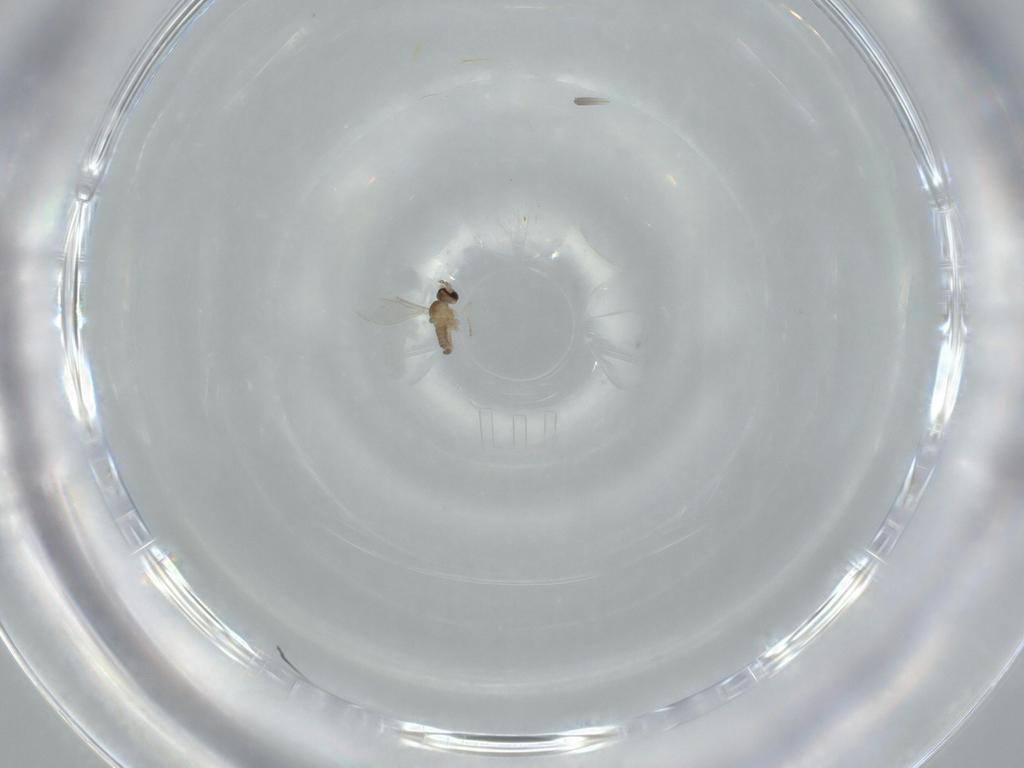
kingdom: Animalia
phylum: Arthropoda
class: Insecta
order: Diptera
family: Cecidomyiidae
